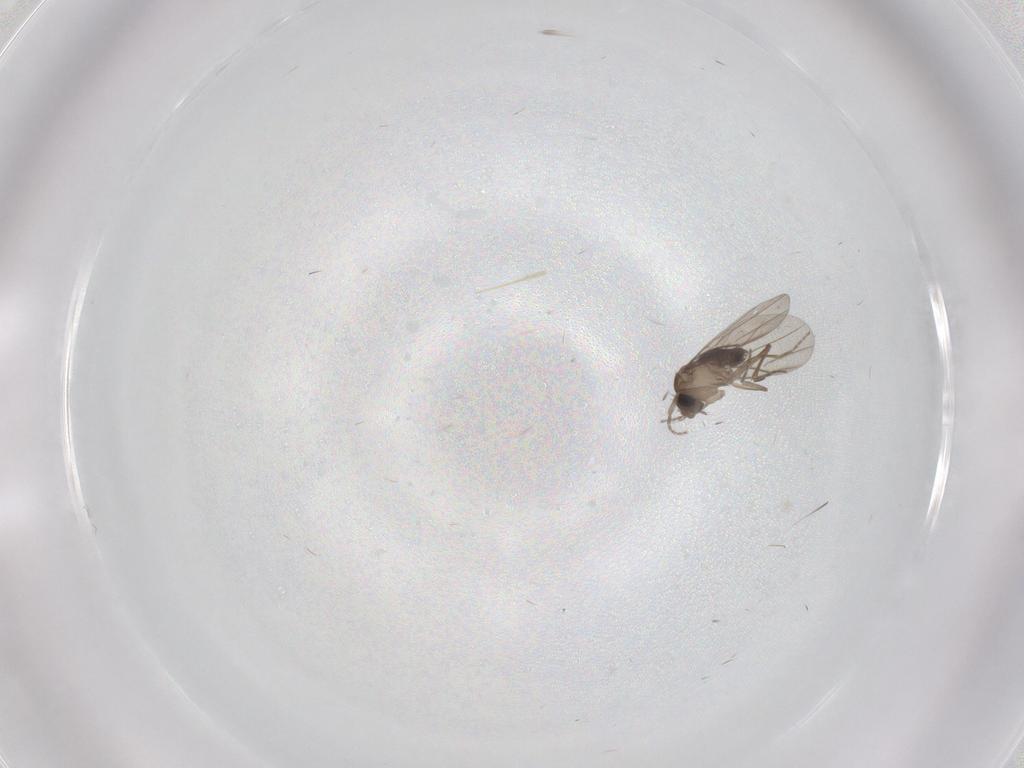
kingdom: Animalia
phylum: Arthropoda
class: Insecta
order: Diptera
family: Phoridae
